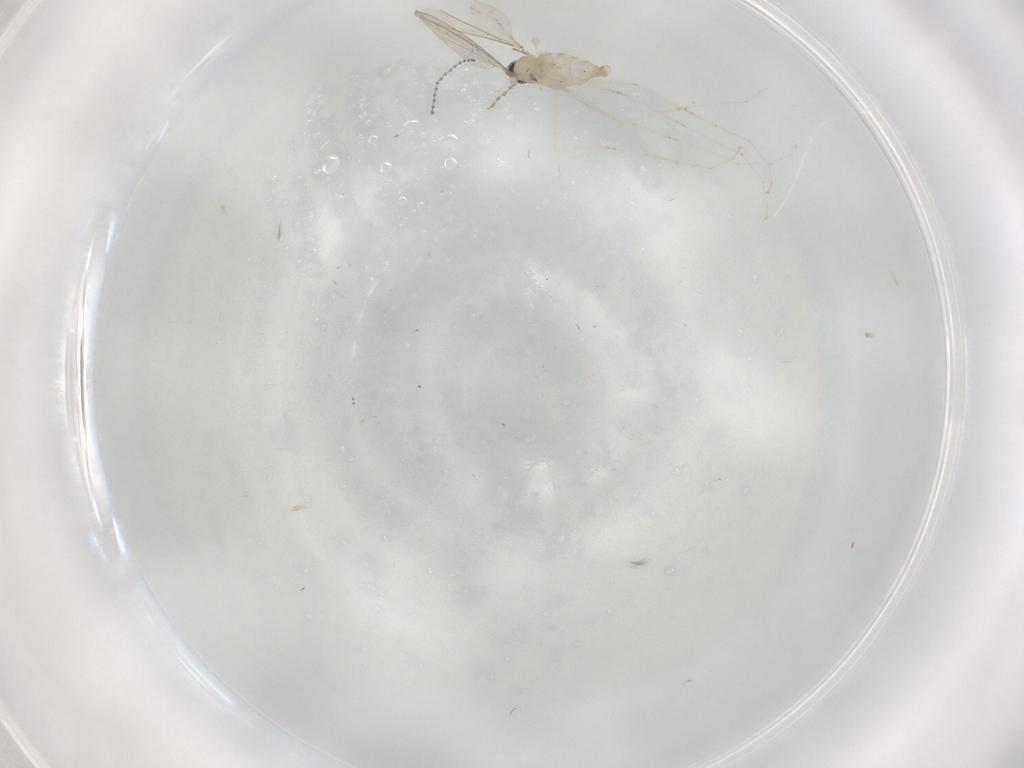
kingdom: Animalia
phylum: Arthropoda
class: Insecta
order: Diptera
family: Cecidomyiidae
